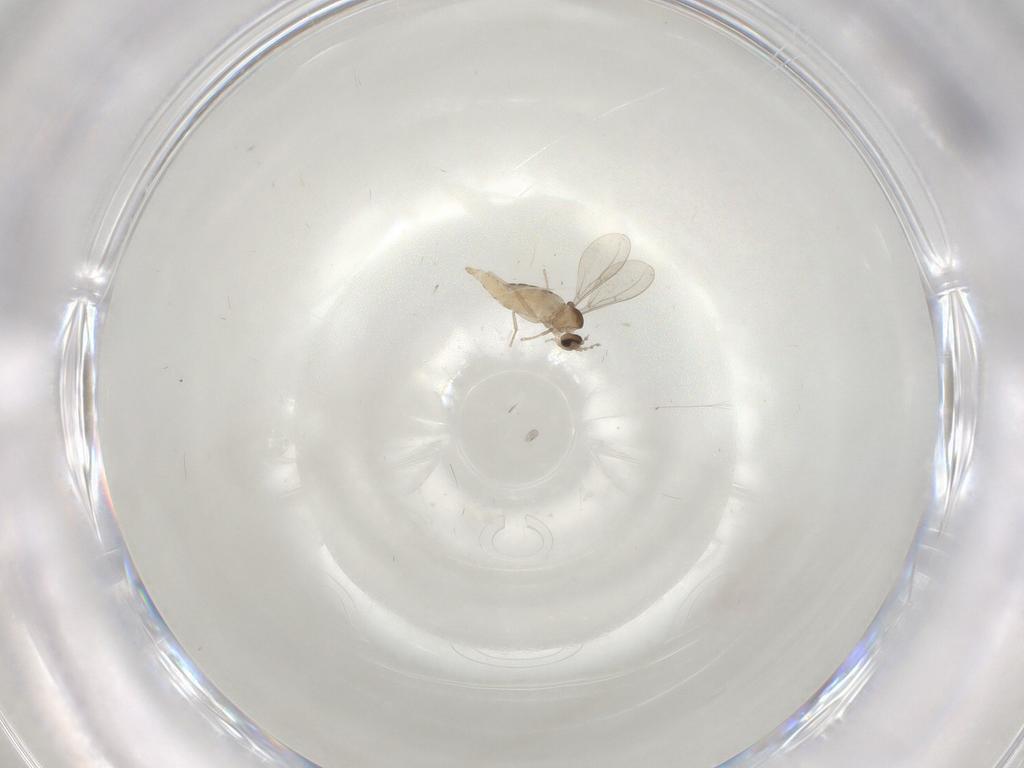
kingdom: Animalia
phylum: Arthropoda
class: Insecta
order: Diptera
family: Cecidomyiidae
